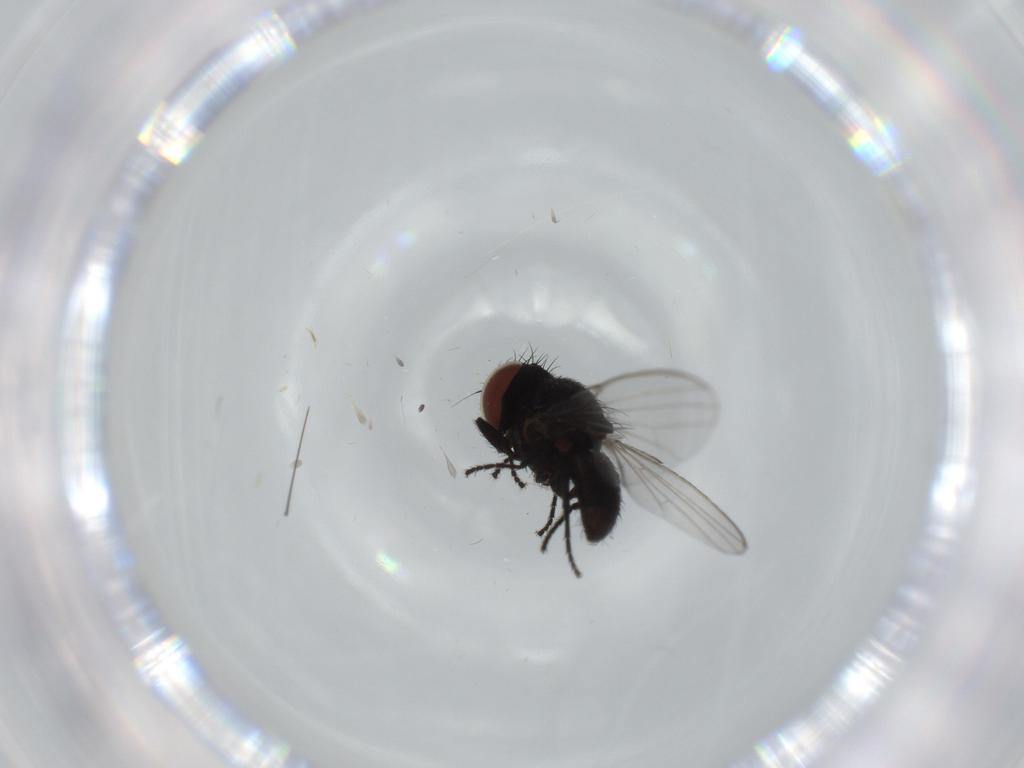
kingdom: Animalia
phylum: Arthropoda
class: Insecta
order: Diptera
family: Milichiidae
